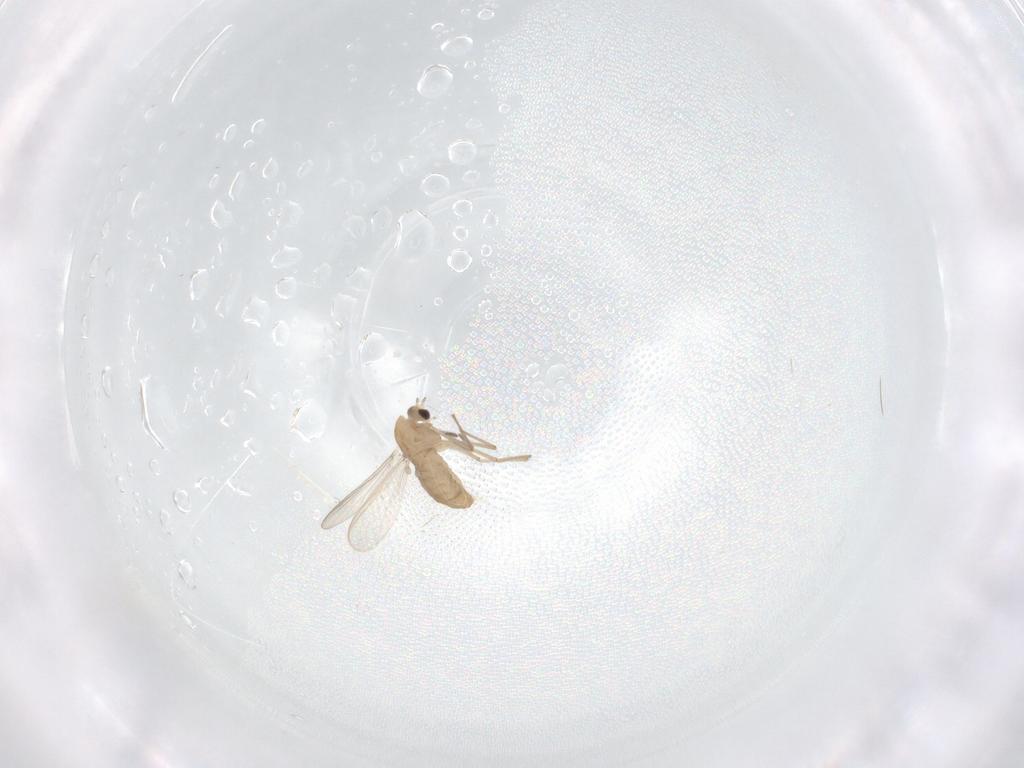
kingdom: Animalia
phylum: Arthropoda
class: Insecta
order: Diptera
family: Chironomidae
